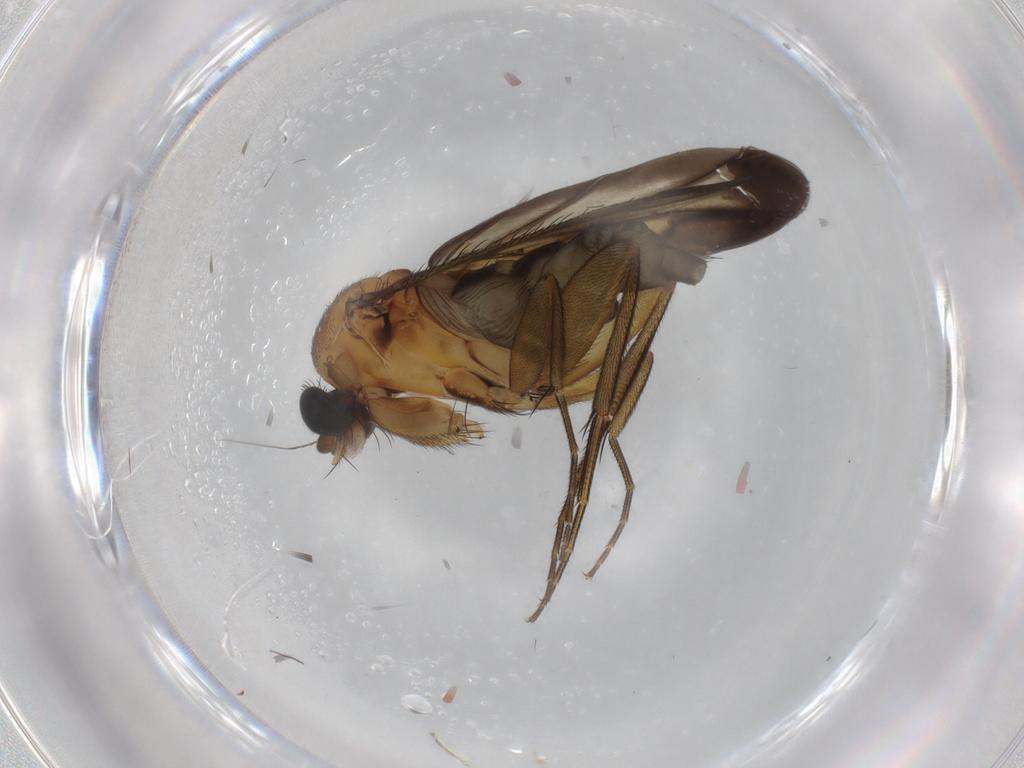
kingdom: Animalia
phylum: Arthropoda
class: Insecta
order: Diptera
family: Phoridae
